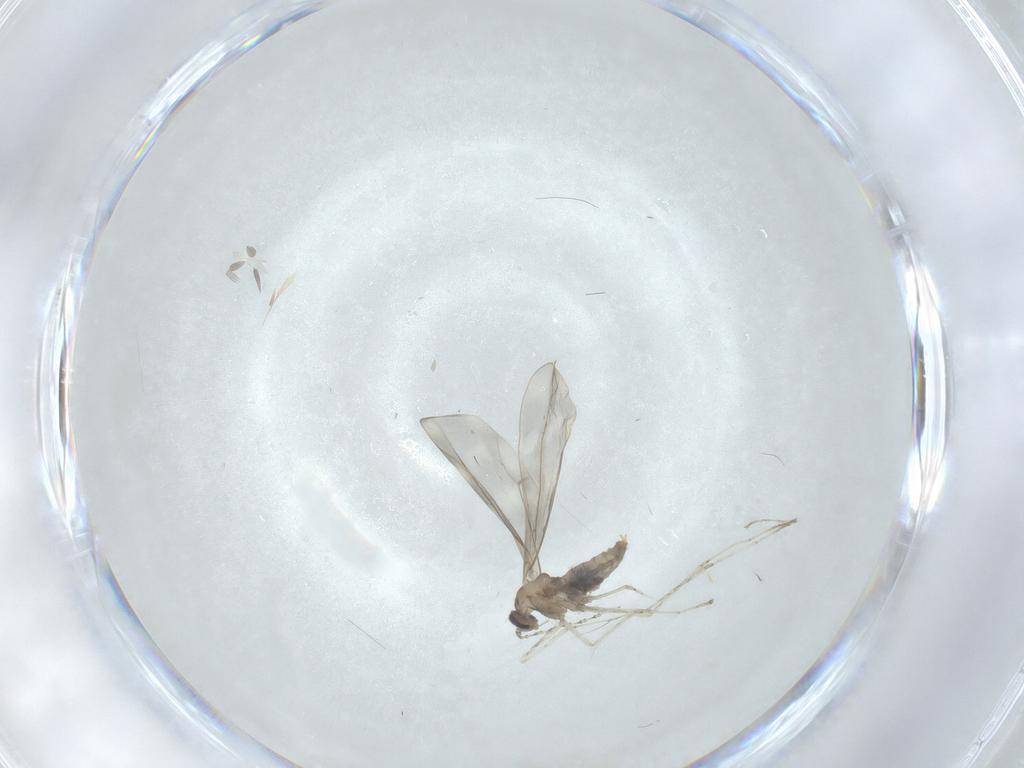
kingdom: Animalia
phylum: Arthropoda
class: Insecta
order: Diptera
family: Cecidomyiidae
